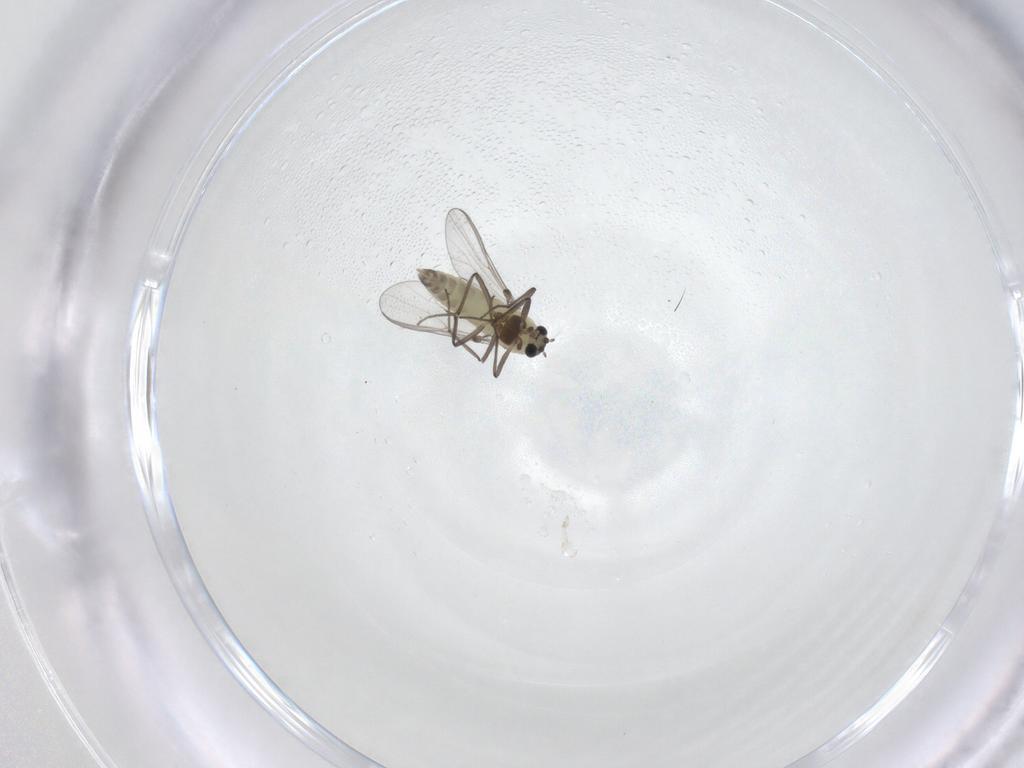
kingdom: Animalia
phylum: Arthropoda
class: Insecta
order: Diptera
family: Chironomidae
